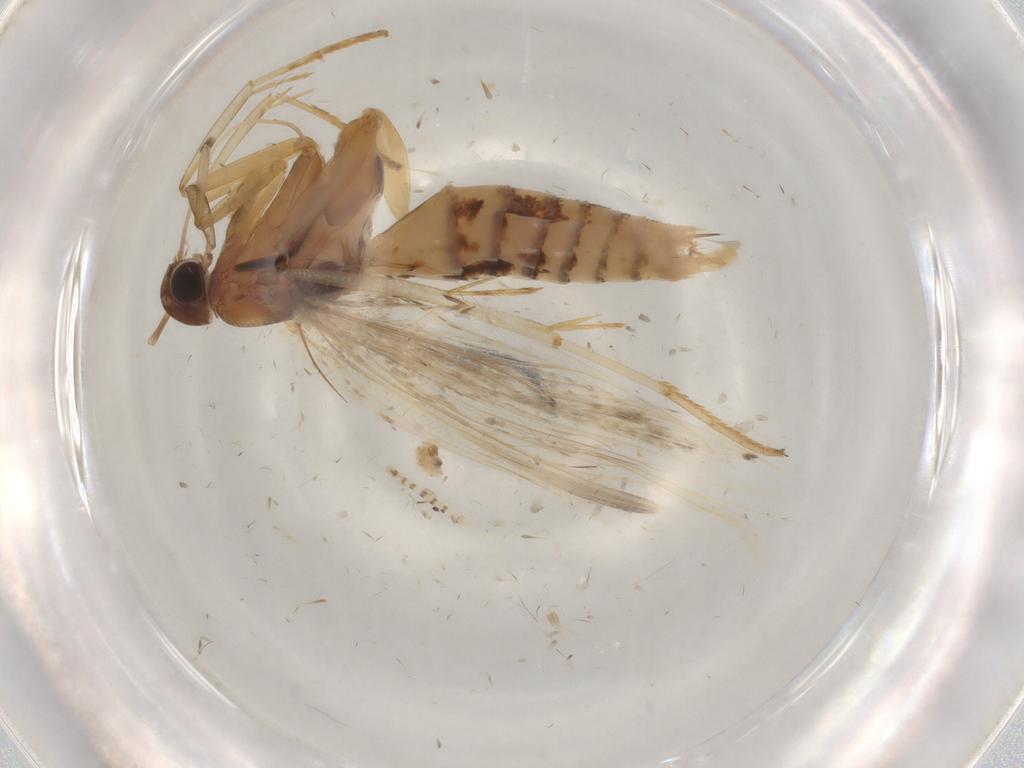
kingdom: Animalia
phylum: Arthropoda
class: Insecta
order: Lepidoptera
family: Gelechiidae
